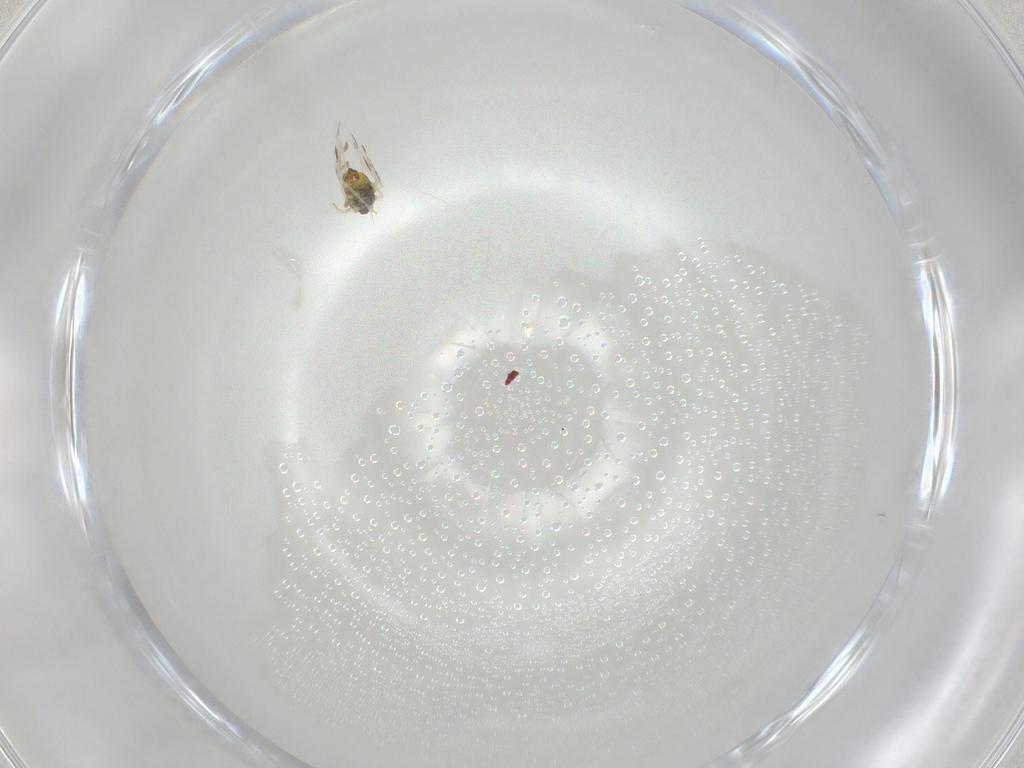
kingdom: Animalia
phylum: Arthropoda
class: Insecta
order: Hemiptera
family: Blissidae
